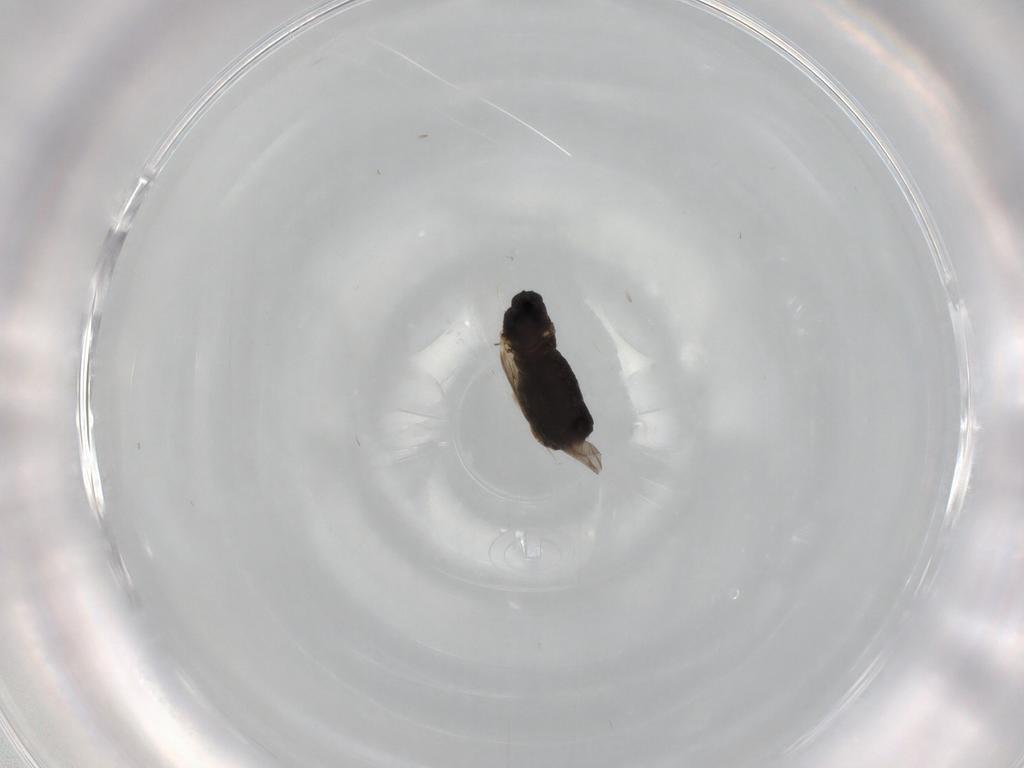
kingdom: Animalia
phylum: Arthropoda
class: Insecta
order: Diptera
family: Scatopsidae
